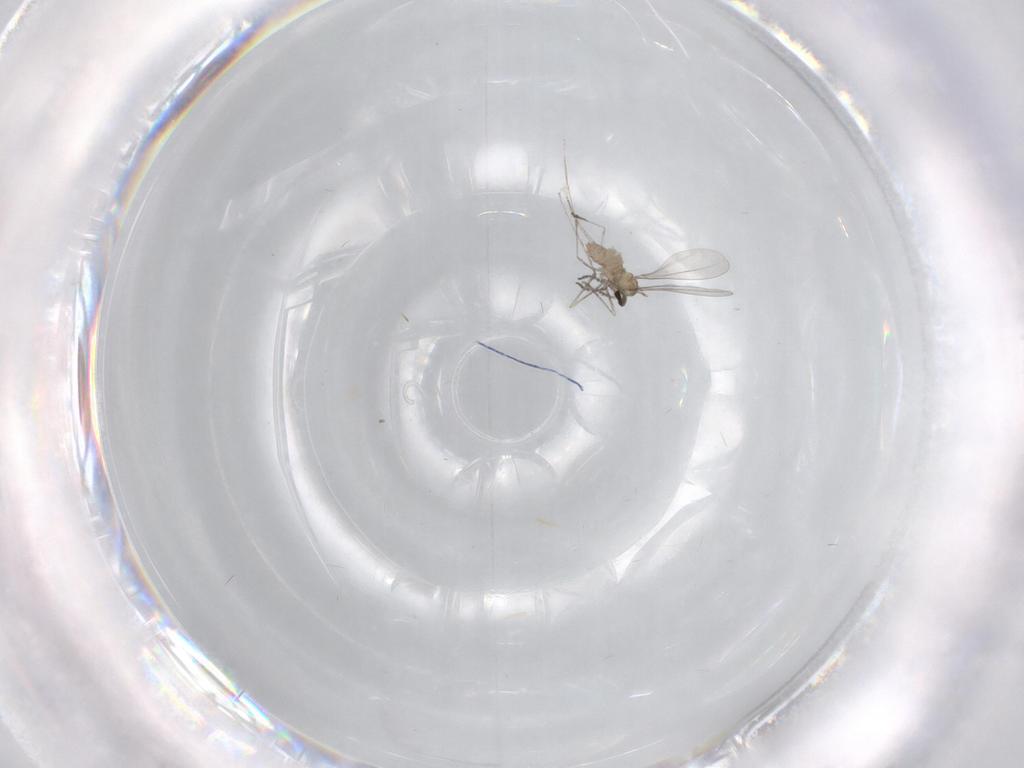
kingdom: Animalia
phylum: Arthropoda
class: Insecta
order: Diptera
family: Cecidomyiidae
